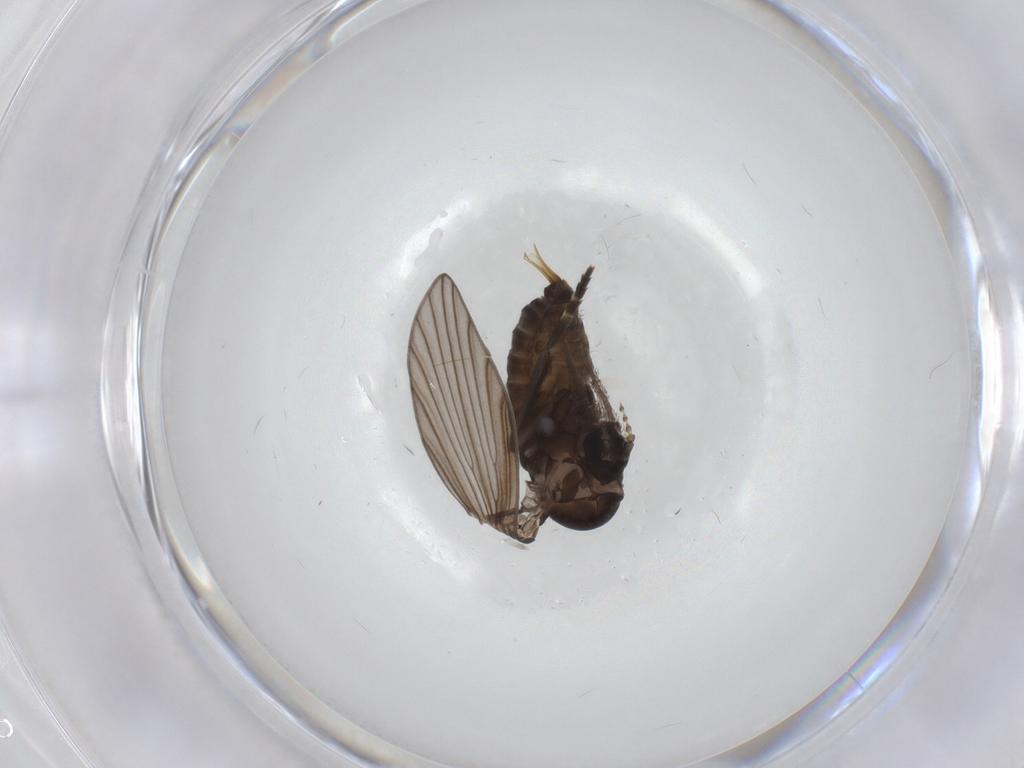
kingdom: Animalia
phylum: Arthropoda
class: Insecta
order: Diptera
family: Psychodidae
